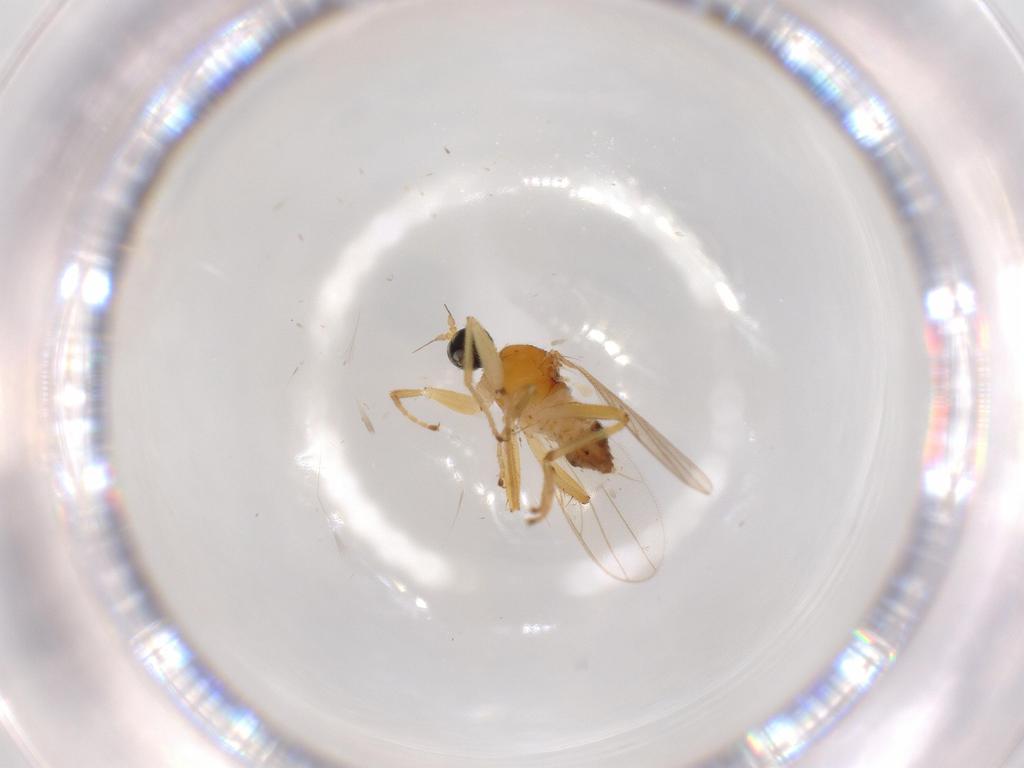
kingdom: Animalia
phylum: Arthropoda
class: Insecta
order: Diptera
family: Hybotidae
